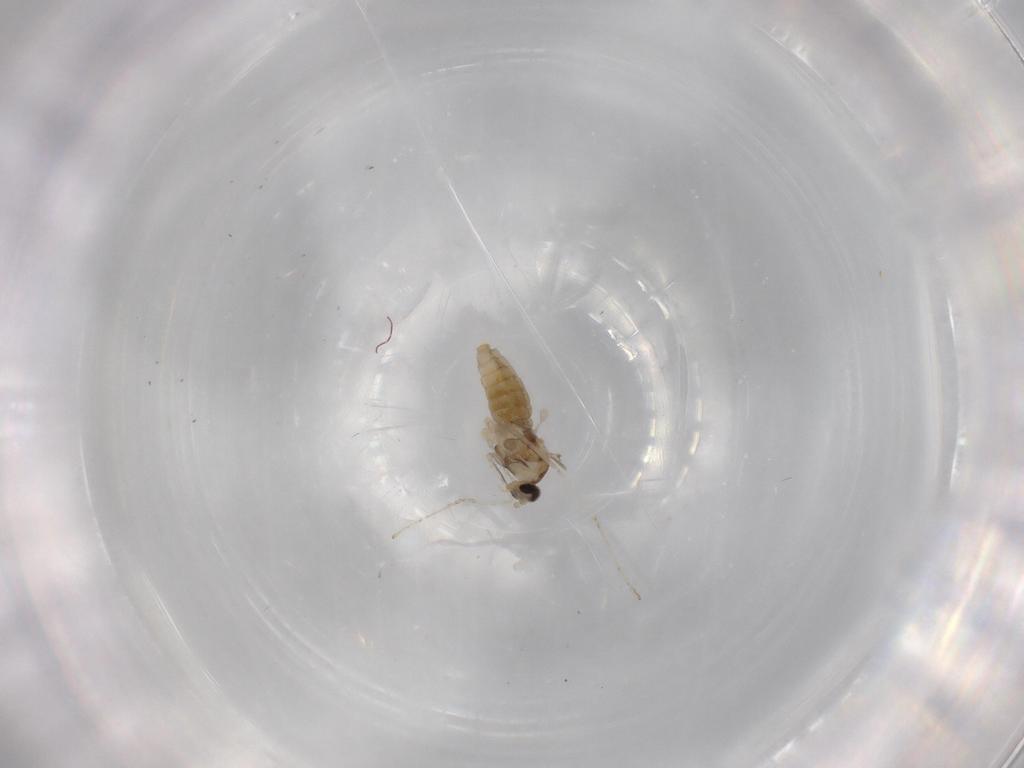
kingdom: Animalia
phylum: Arthropoda
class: Insecta
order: Diptera
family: Cecidomyiidae
